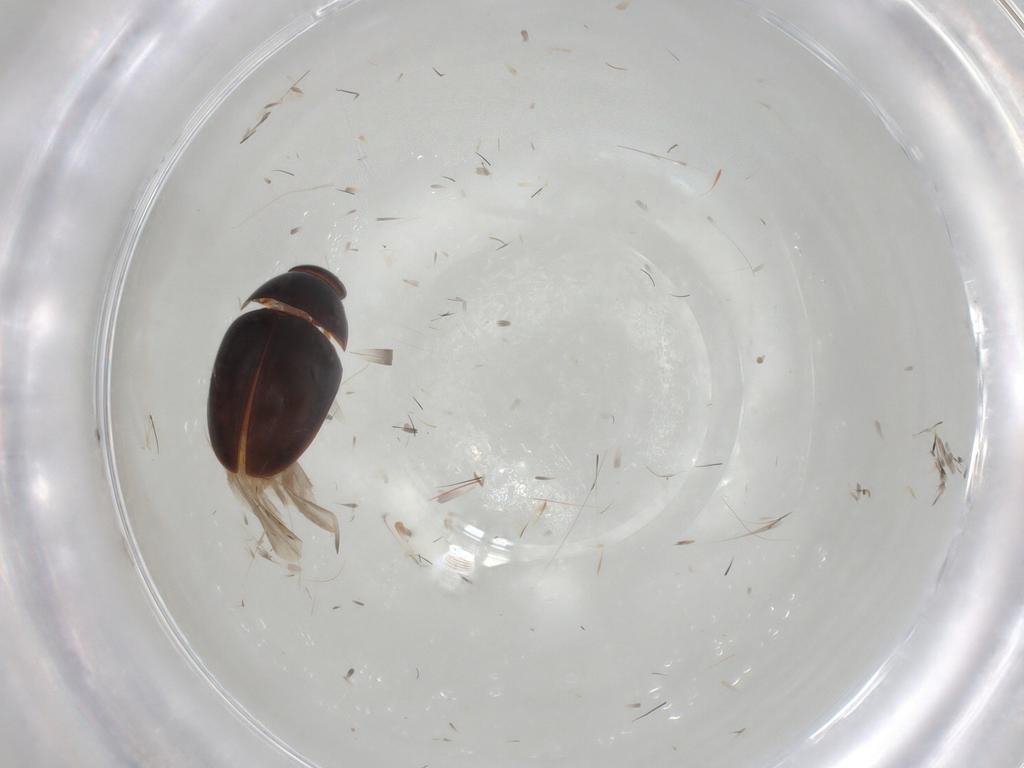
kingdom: Animalia
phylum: Arthropoda
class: Insecta
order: Coleoptera
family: Phalacridae
